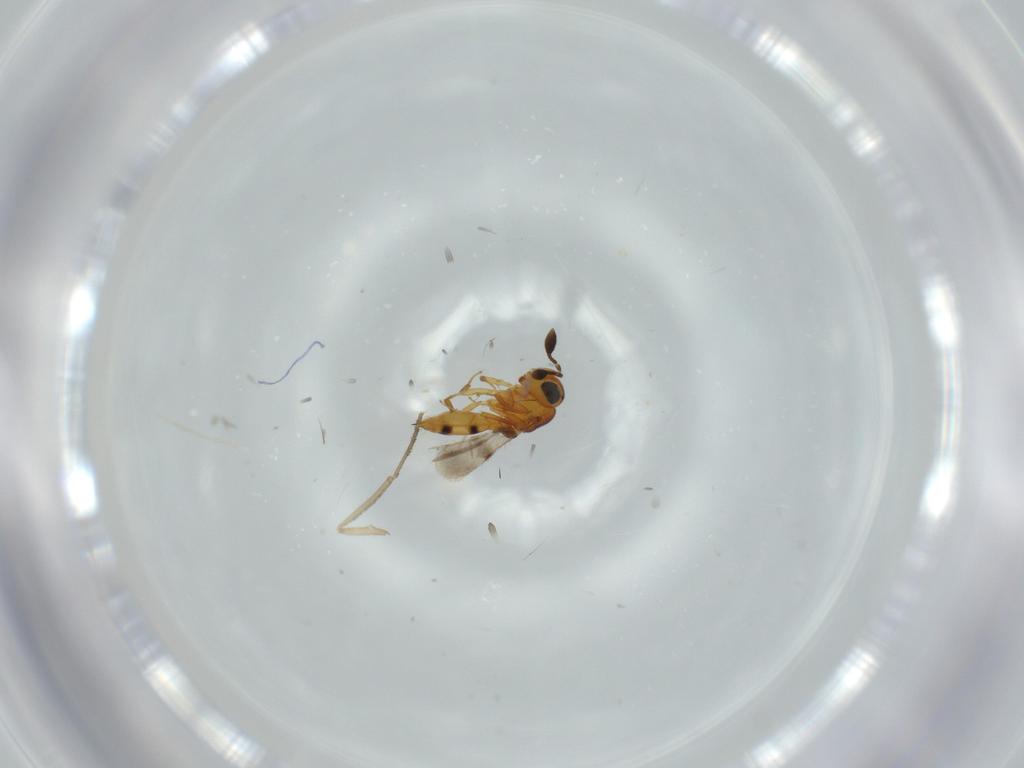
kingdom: Animalia
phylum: Arthropoda
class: Insecta
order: Hymenoptera
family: Scelionidae
